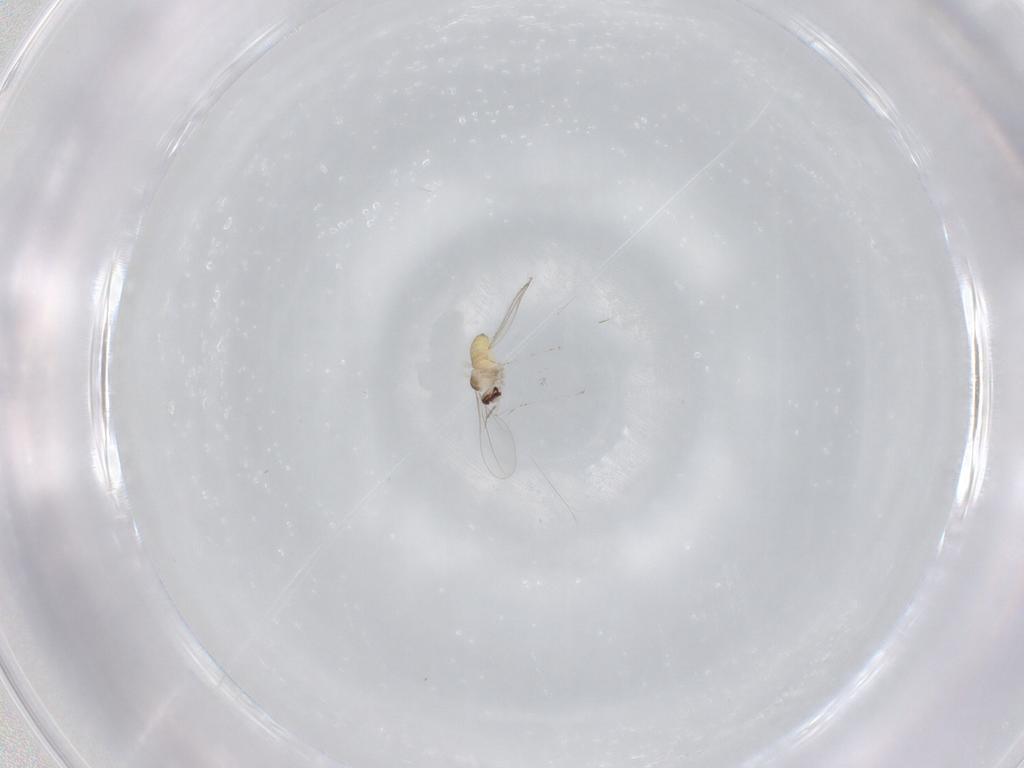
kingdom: Animalia
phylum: Arthropoda
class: Insecta
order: Diptera
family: Cecidomyiidae
